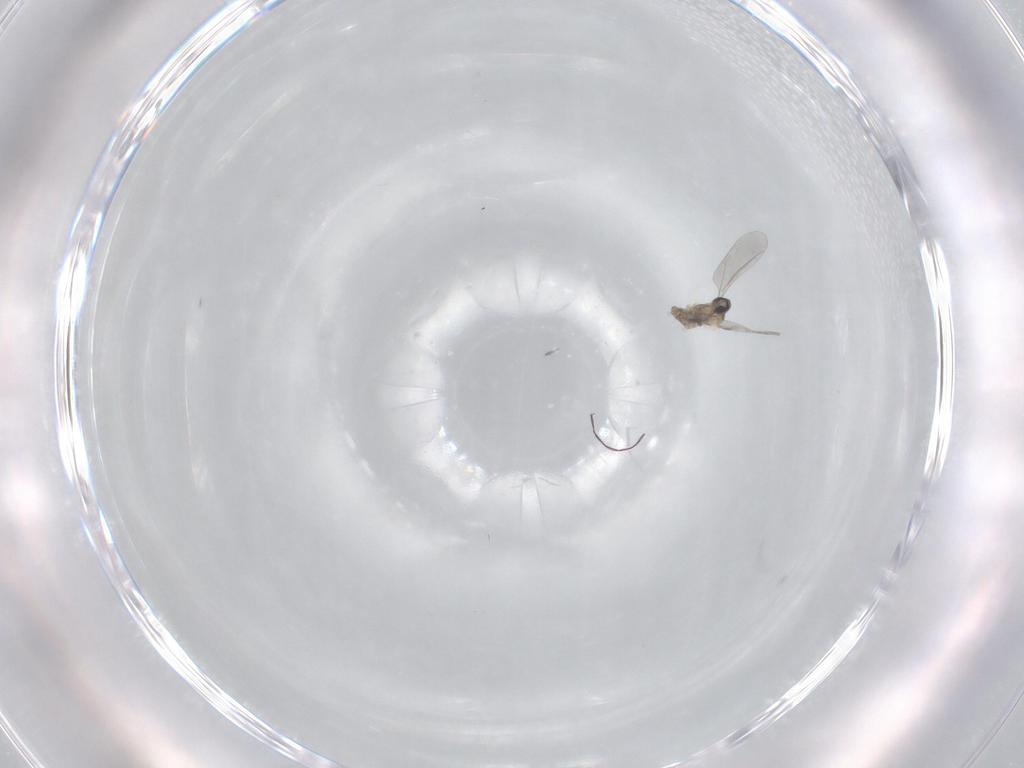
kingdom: Animalia
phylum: Arthropoda
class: Insecta
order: Diptera
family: Cecidomyiidae
